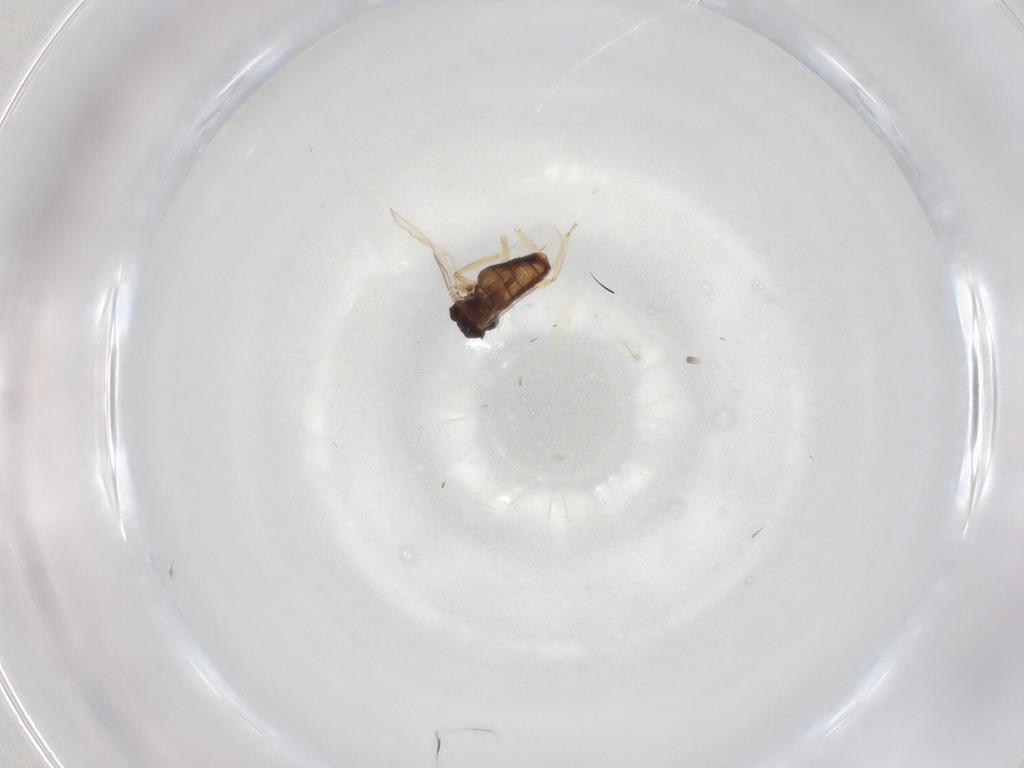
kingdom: Animalia
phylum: Arthropoda
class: Insecta
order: Diptera
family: Ceratopogonidae
